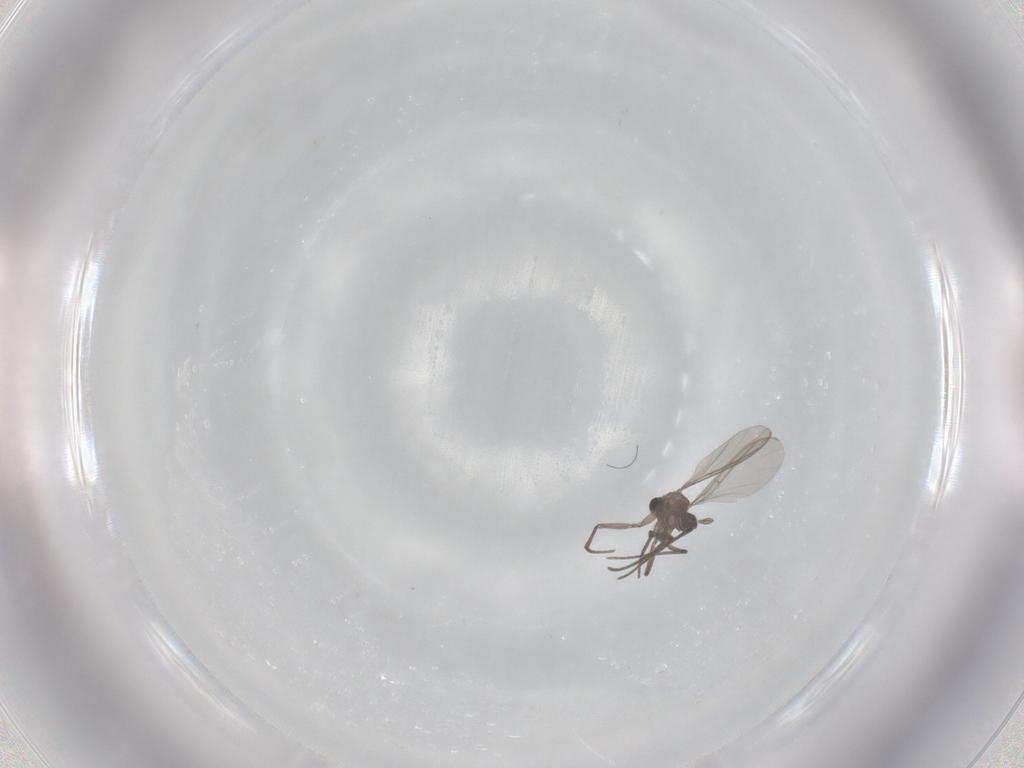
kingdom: Animalia
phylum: Arthropoda
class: Insecta
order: Diptera
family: Sciaridae
